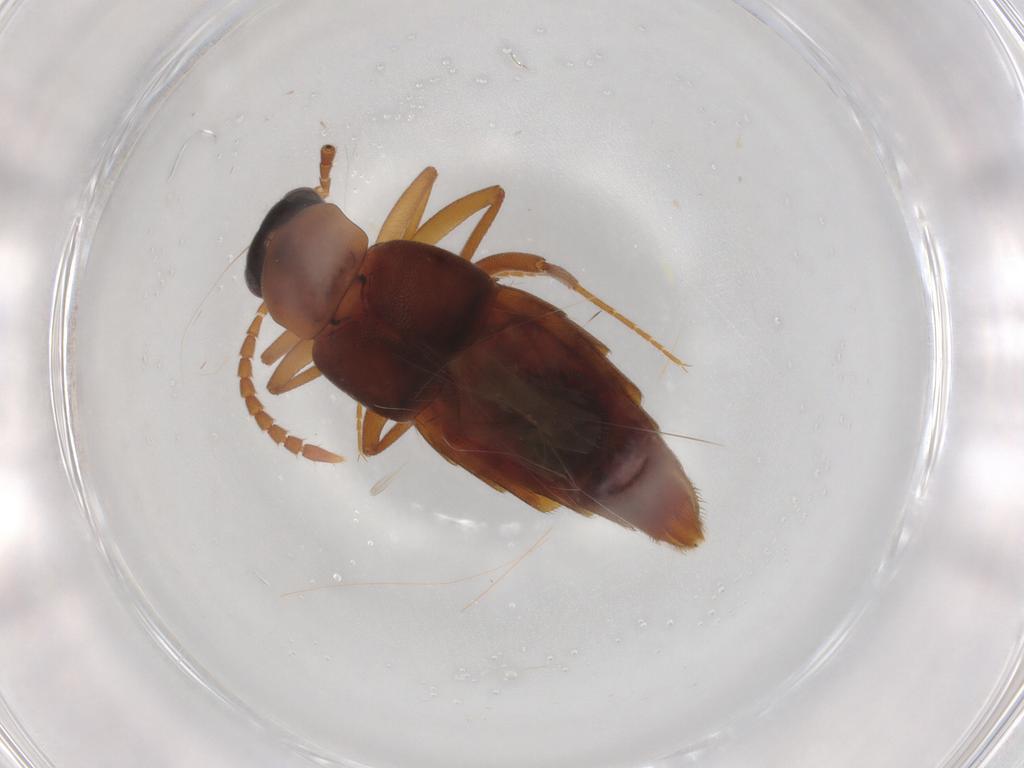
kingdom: Animalia
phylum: Arthropoda
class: Insecta
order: Coleoptera
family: Staphylinidae
